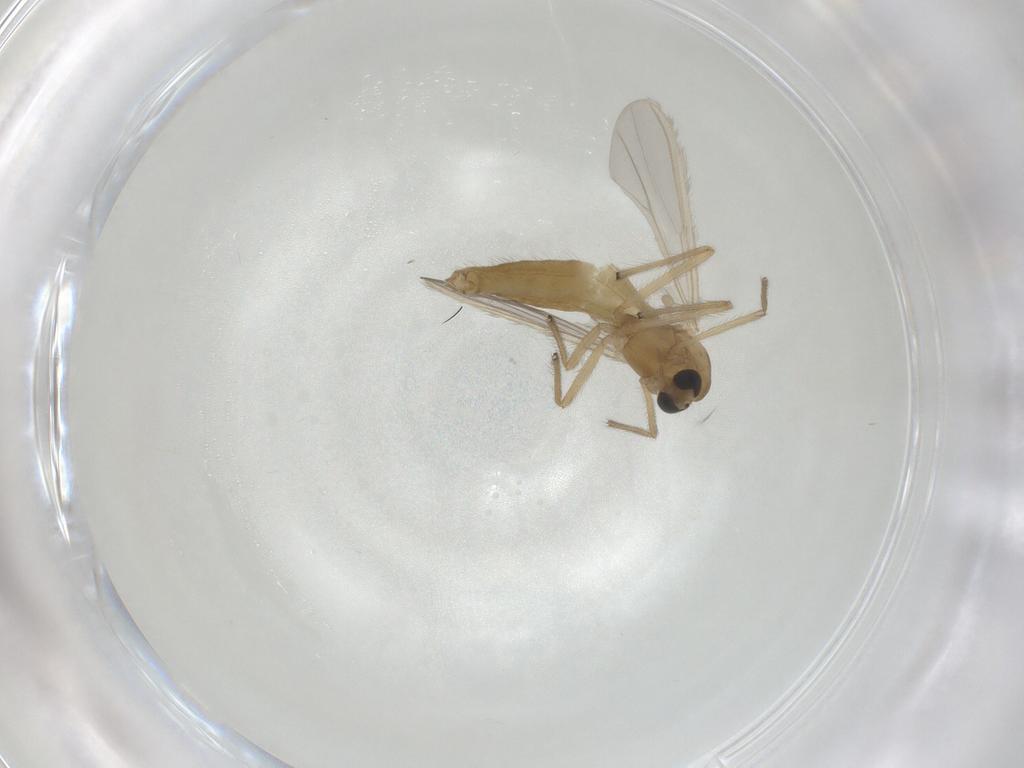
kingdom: Animalia
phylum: Arthropoda
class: Insecta
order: Diptera
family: Chironomidae
